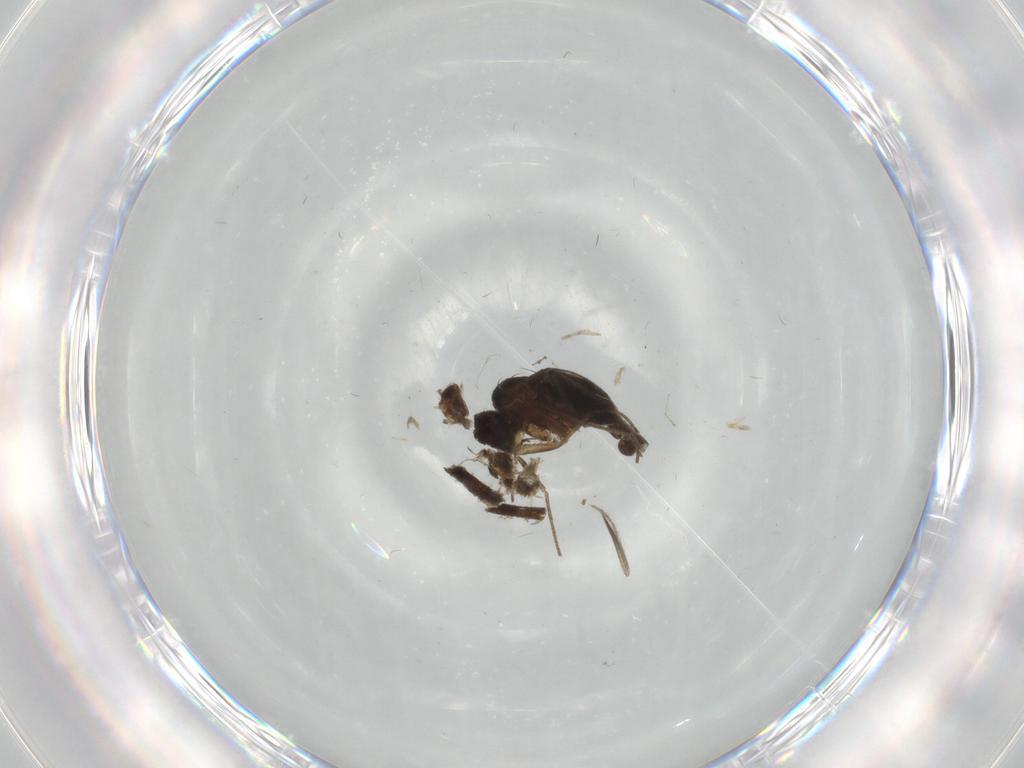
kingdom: Animalia
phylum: Arthropoda
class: Insecta
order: Diptera
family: Dolichopodidae
